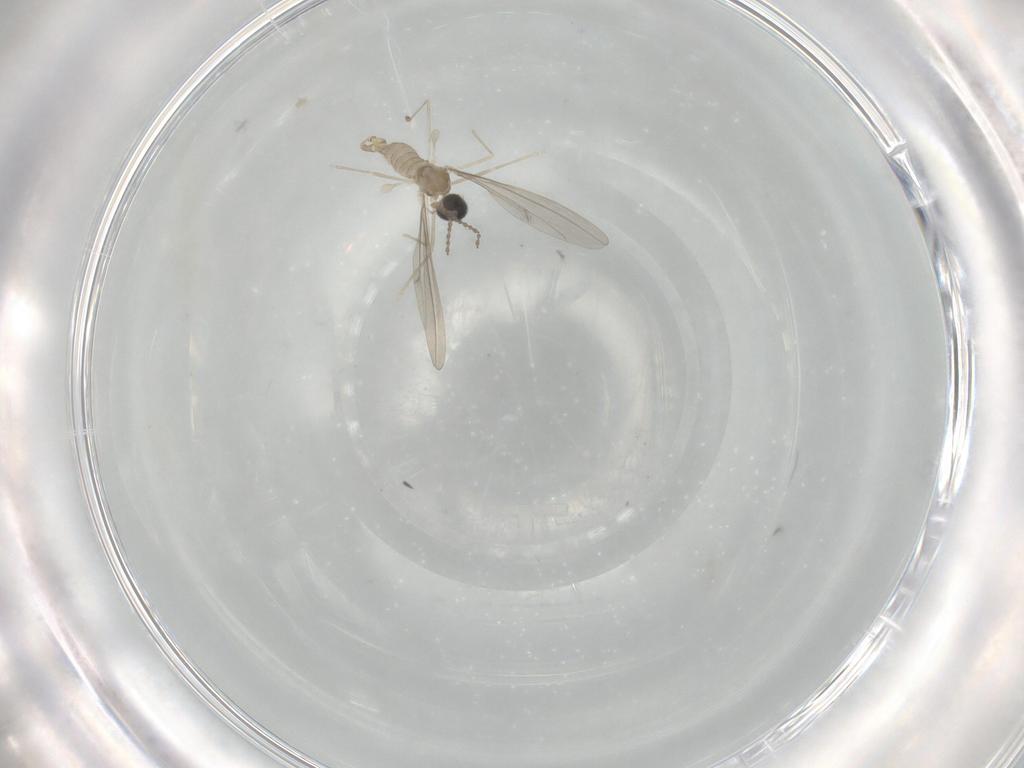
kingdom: Animalia
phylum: Arthropoda
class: Insecta
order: Diptera
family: Cecidomyiidae
